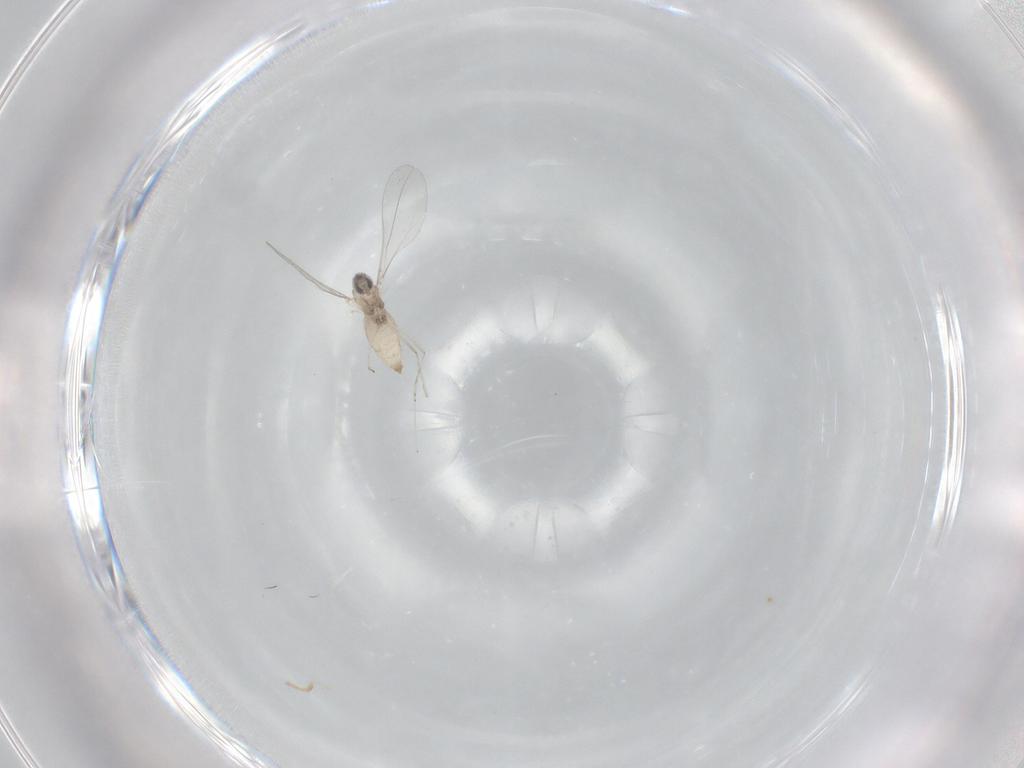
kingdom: Animalia
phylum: Arthropoda
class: Insecta
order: Diptera
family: Cecidomyiidae
